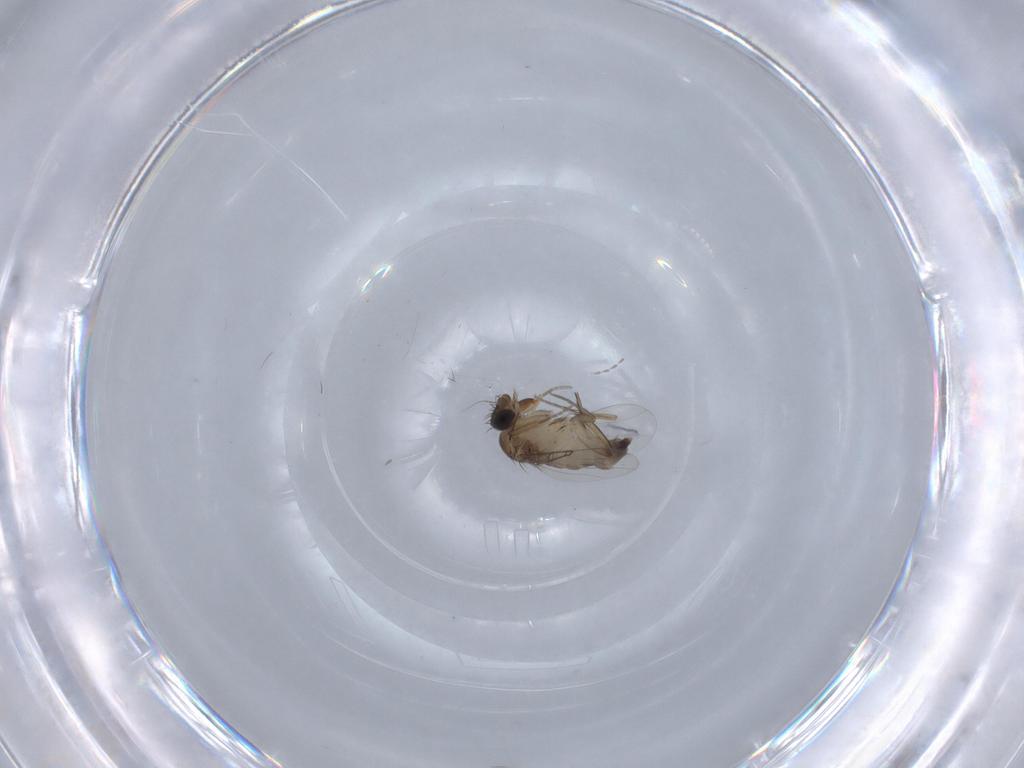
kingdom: Animalia
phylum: Arthropoda
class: Insecta
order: Diptera
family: Phoridae
